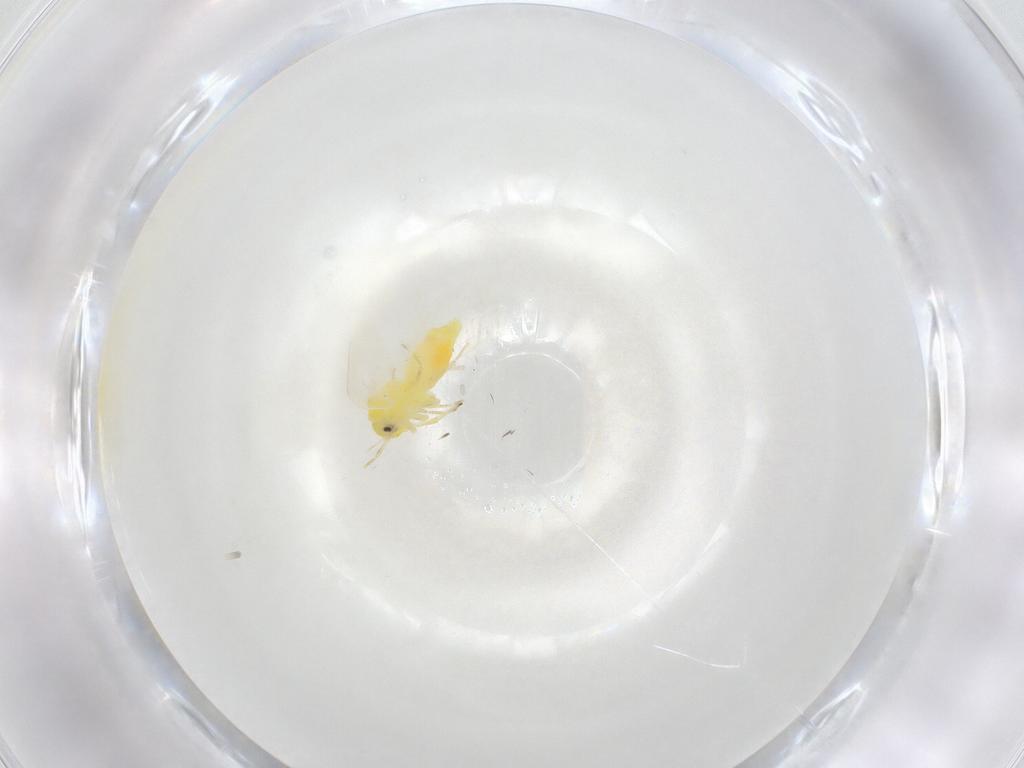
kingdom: Animalia
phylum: Arthropoda
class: Insecta
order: Hemiptera
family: Aleyrodidae
